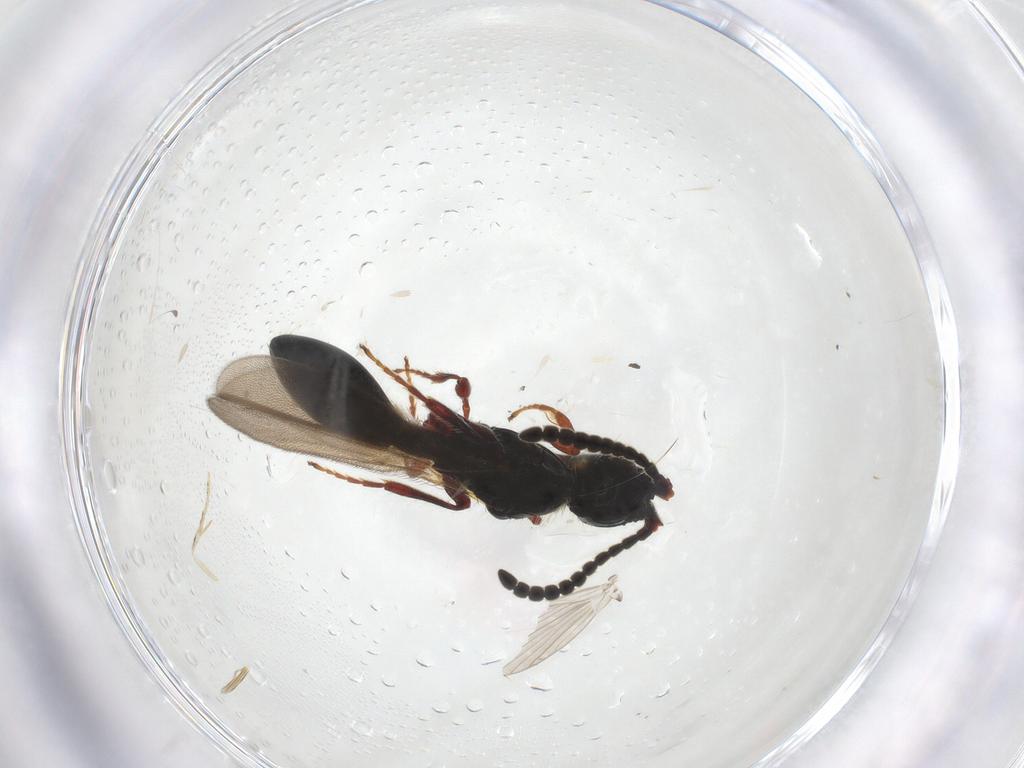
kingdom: Animalia
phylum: Arthropoda
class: Insecta
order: Hymenoptera
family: Diapriidae
